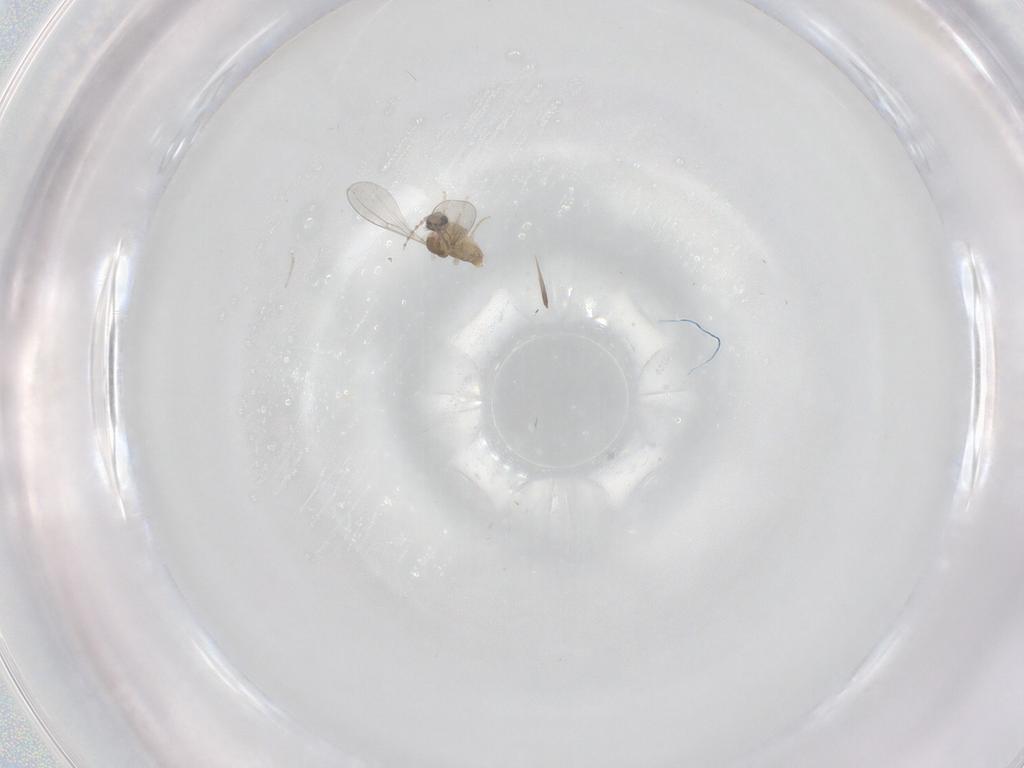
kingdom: Animalia
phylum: Arthropoda
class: Insecta
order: Diptera
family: Cecidomyiidae
